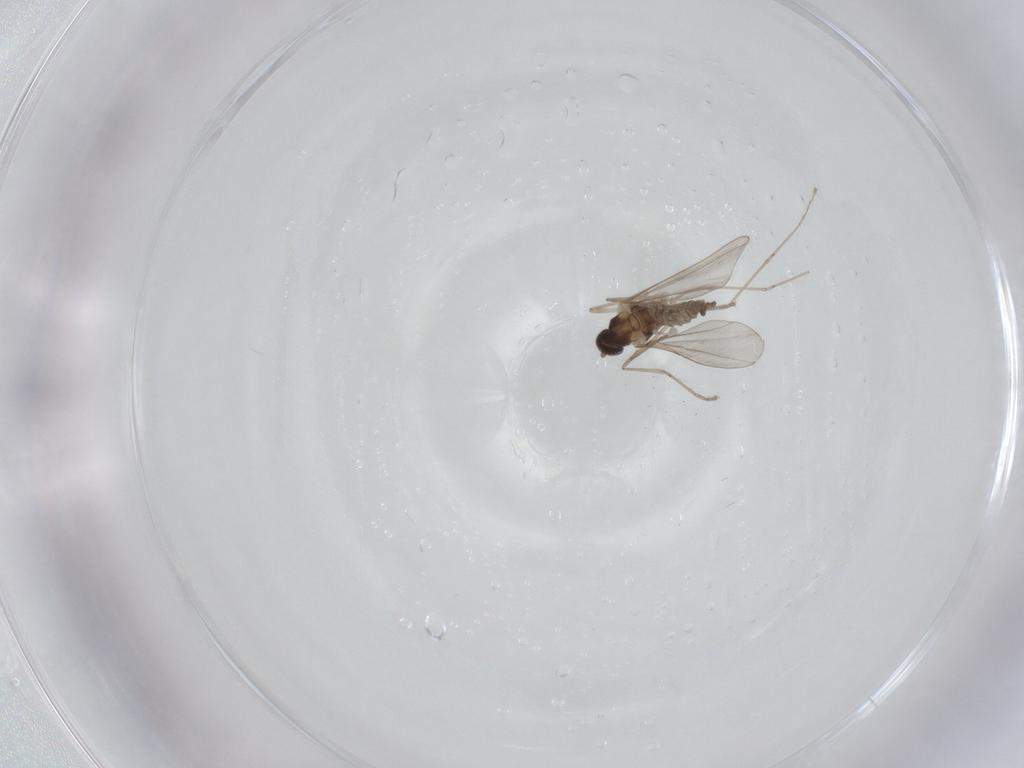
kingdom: Animalia
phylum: Arthropoda
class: Insecta
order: Diptera
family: Cecidomyiidae
